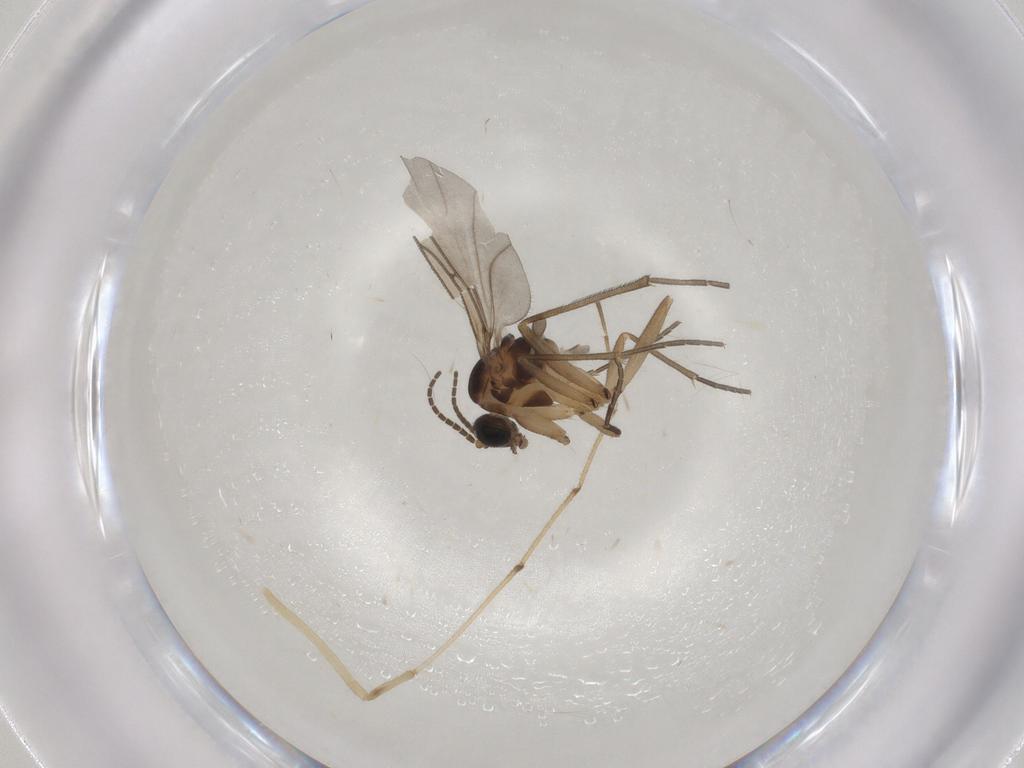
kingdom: Animalia
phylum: Arthropoda
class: Insecta
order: Diptera
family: Chironomidae
